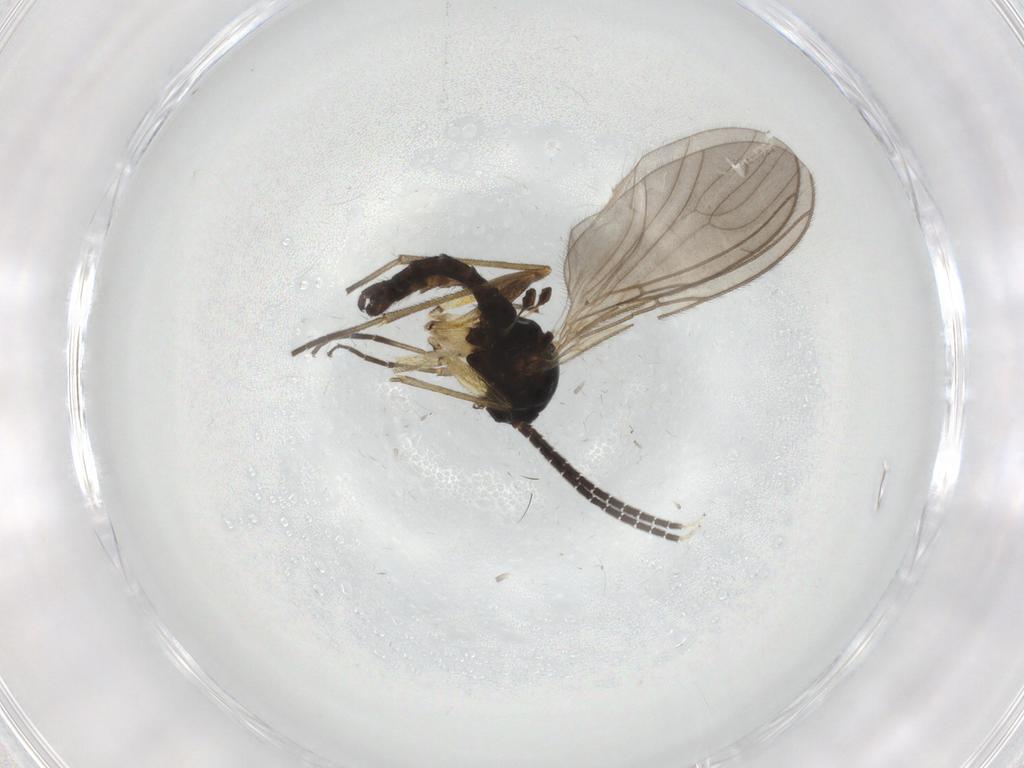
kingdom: Animalia
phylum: Arthropoda
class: Insecta
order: Diptera
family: Sciaridae
